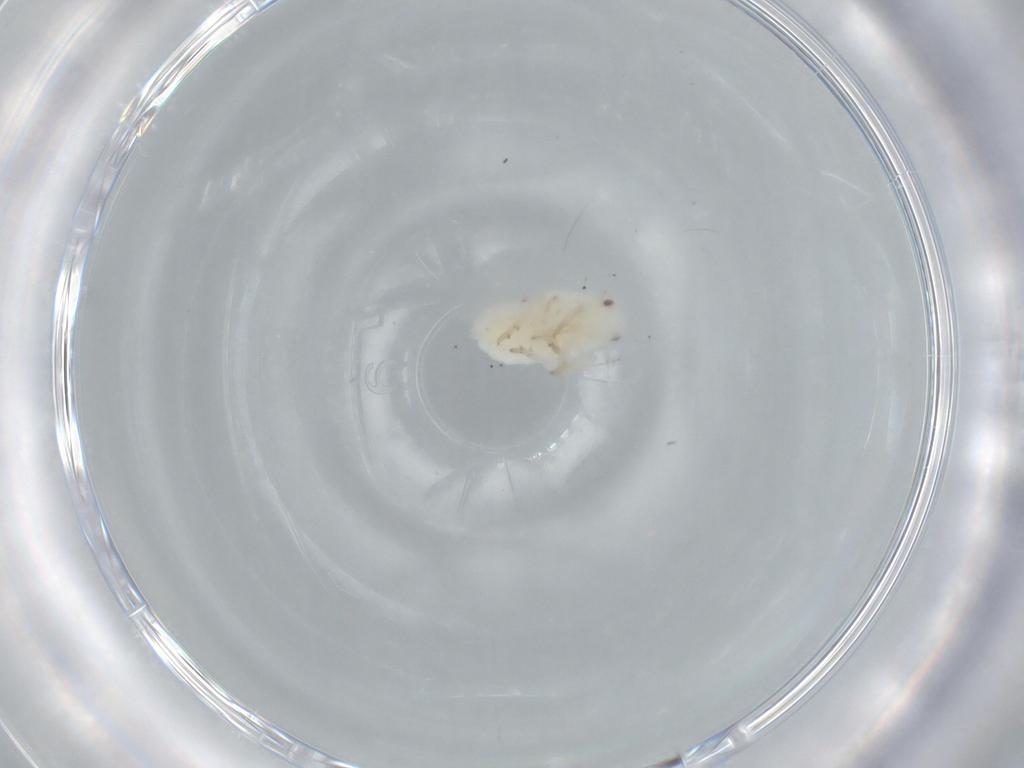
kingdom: Animalia
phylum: Arthropoda
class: Insecta
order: Hemiptera
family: Flatidae
